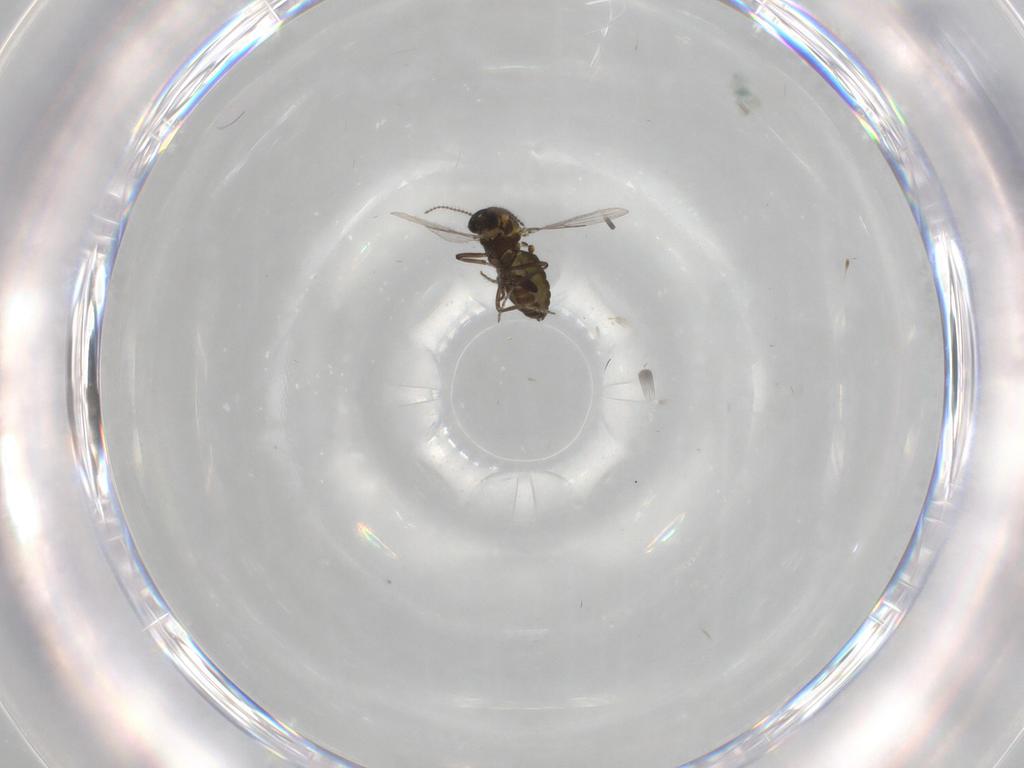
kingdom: Animalia
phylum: Arthropoda
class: Insecta
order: Diptera
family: Ceratopogonidae
